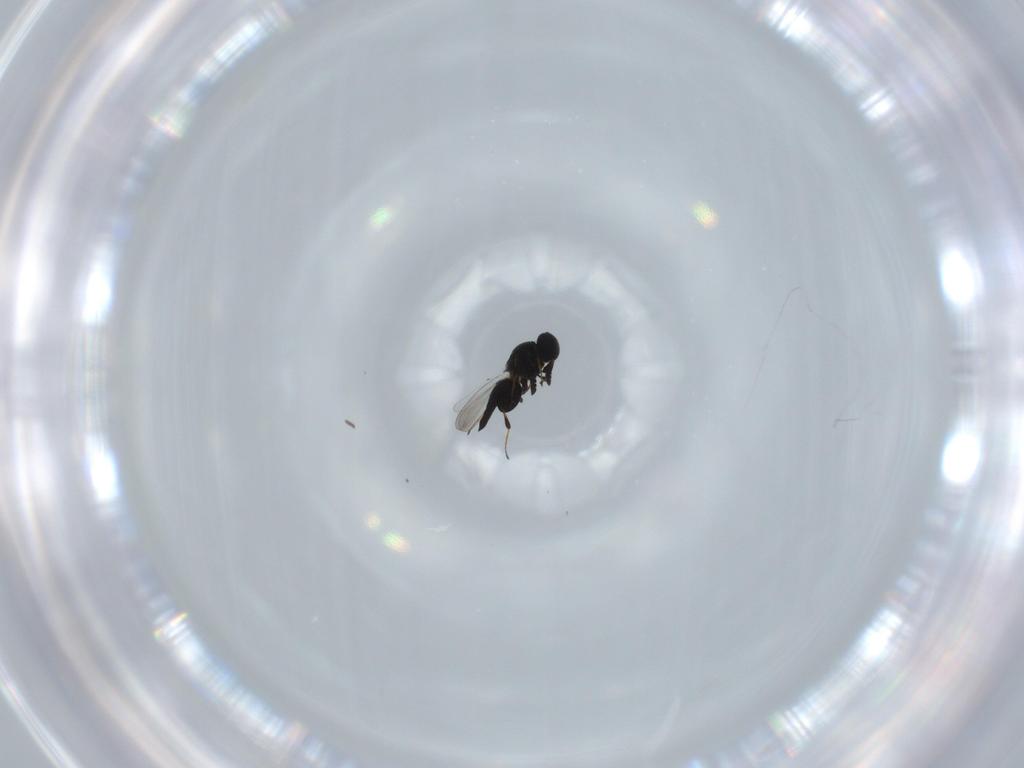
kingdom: Animalia
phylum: Arthropoda
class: Insecta
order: Hymenoptera
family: Platygastridae
